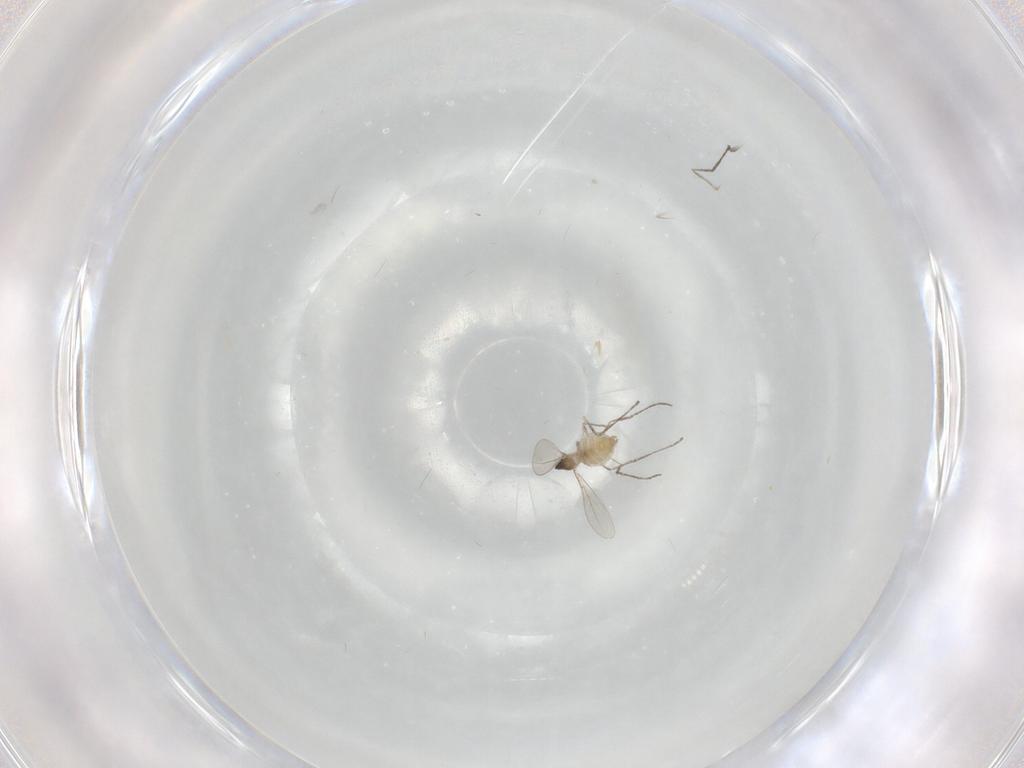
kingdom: Animalia
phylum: Arthropoda
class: Insecta
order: Diptera
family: Cecidomyiidae
